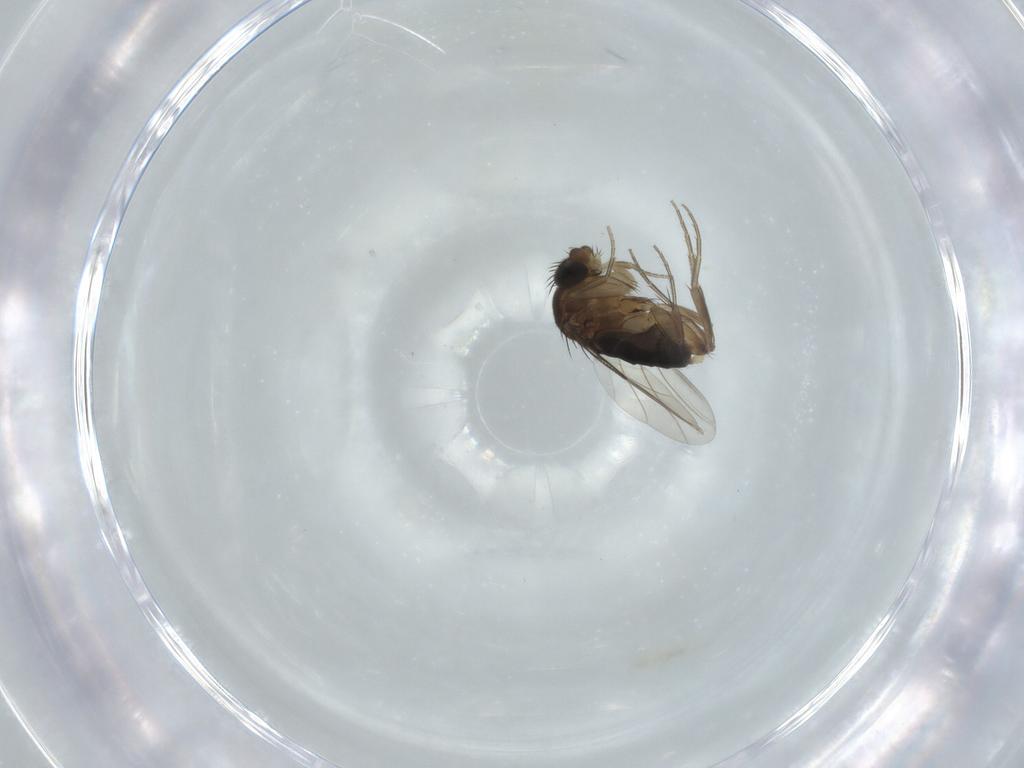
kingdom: Animalia
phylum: Arthropoda
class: Insecta
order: Diptera
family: Phoridae
